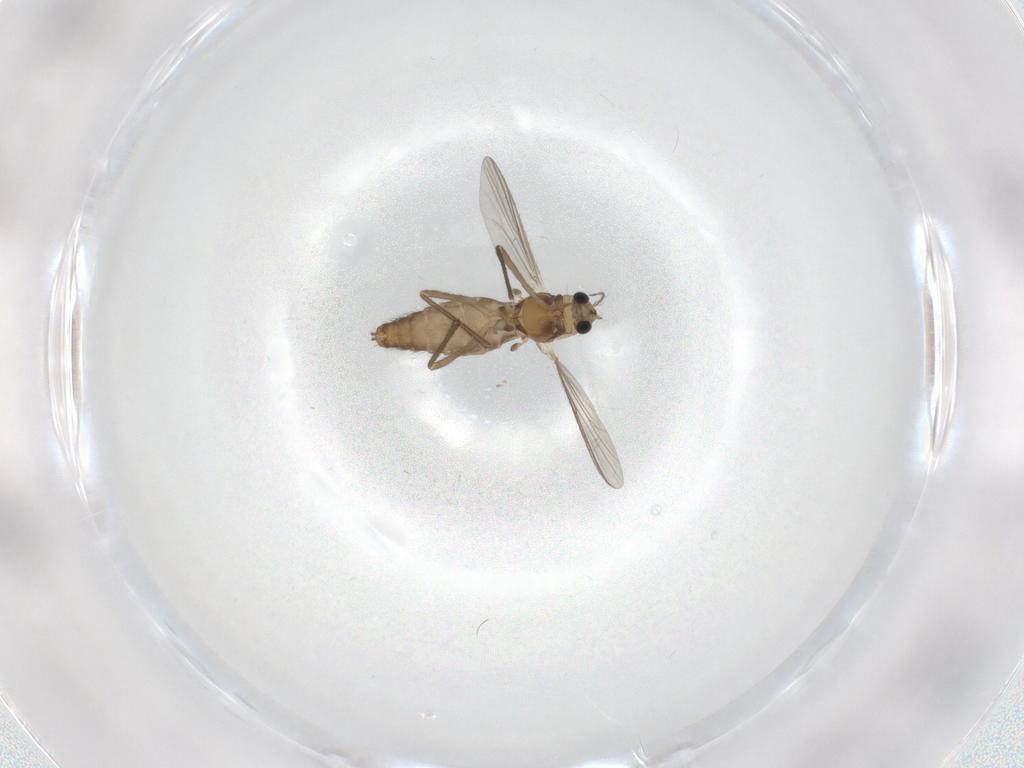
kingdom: Animalia
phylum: Arthropoda
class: Insecta
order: Diptera
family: Chironomidae
